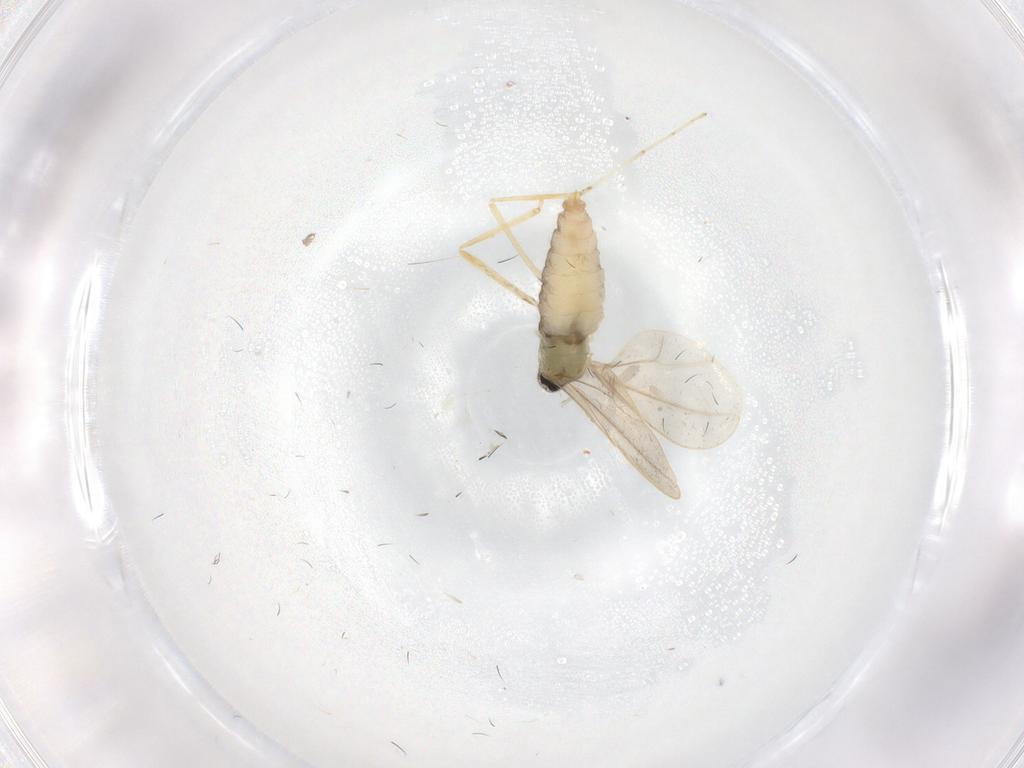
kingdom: Animalia
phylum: Arthropoda
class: Insecta
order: Diptera
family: Cecidomyiidae
